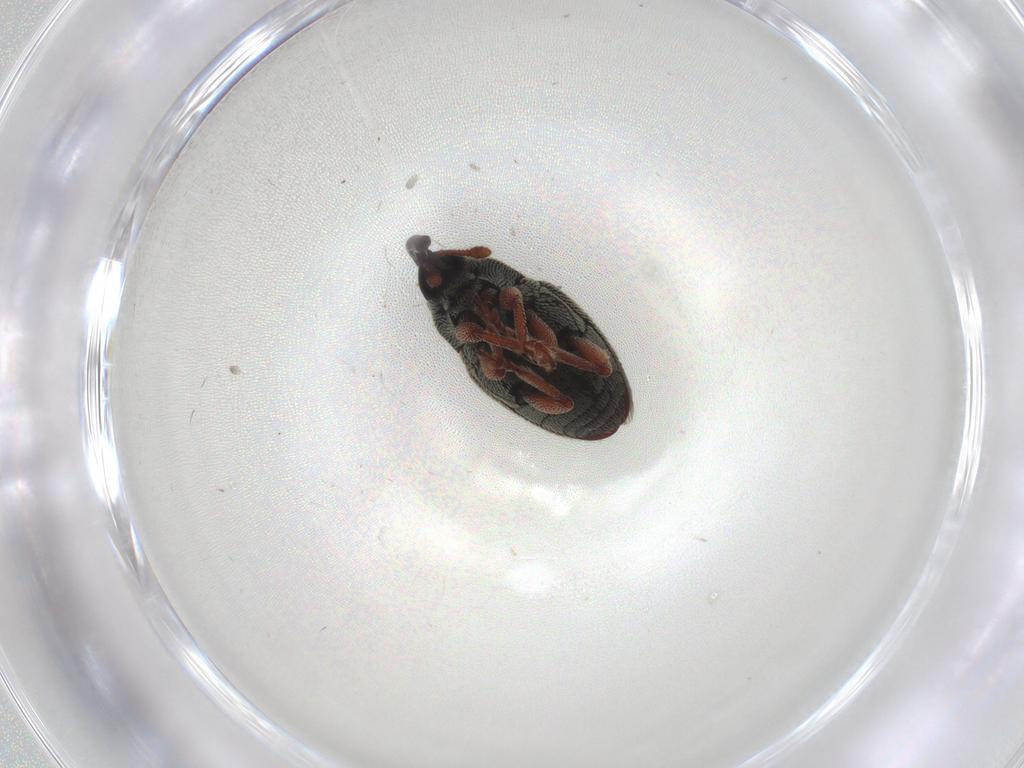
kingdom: Animalia
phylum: Arthropoda
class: Insecta
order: Coleoptera
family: Curculionidae
